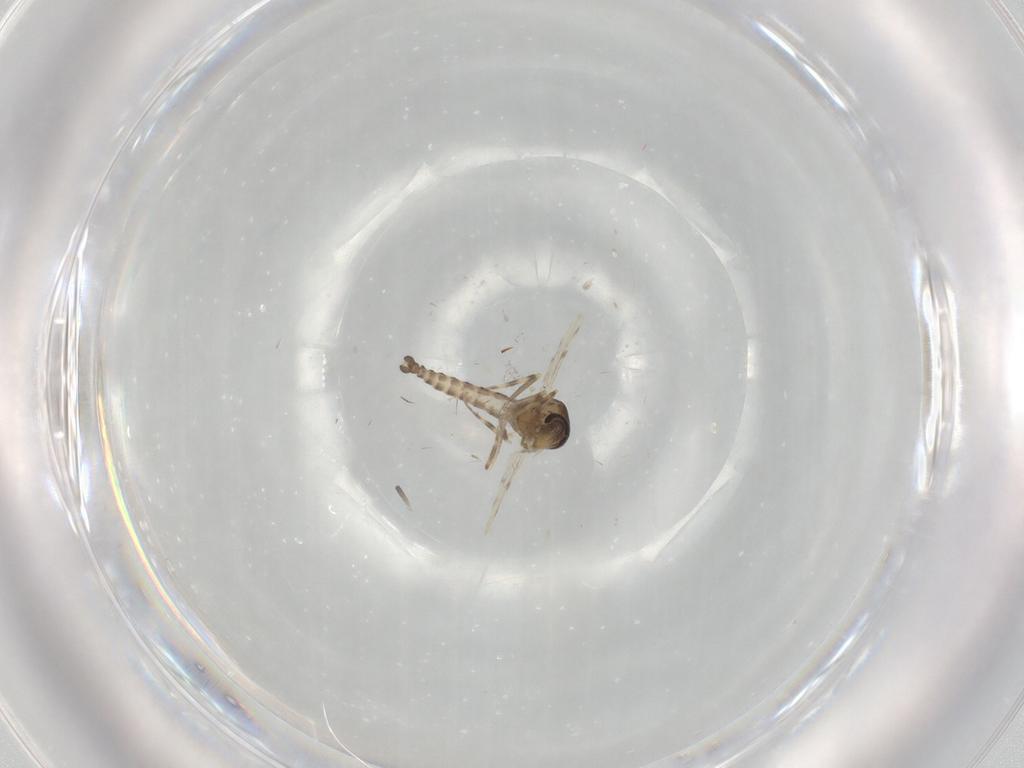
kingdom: Animalia
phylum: Arthropoda
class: Insecta
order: Diptera
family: Ceratopogonidae
